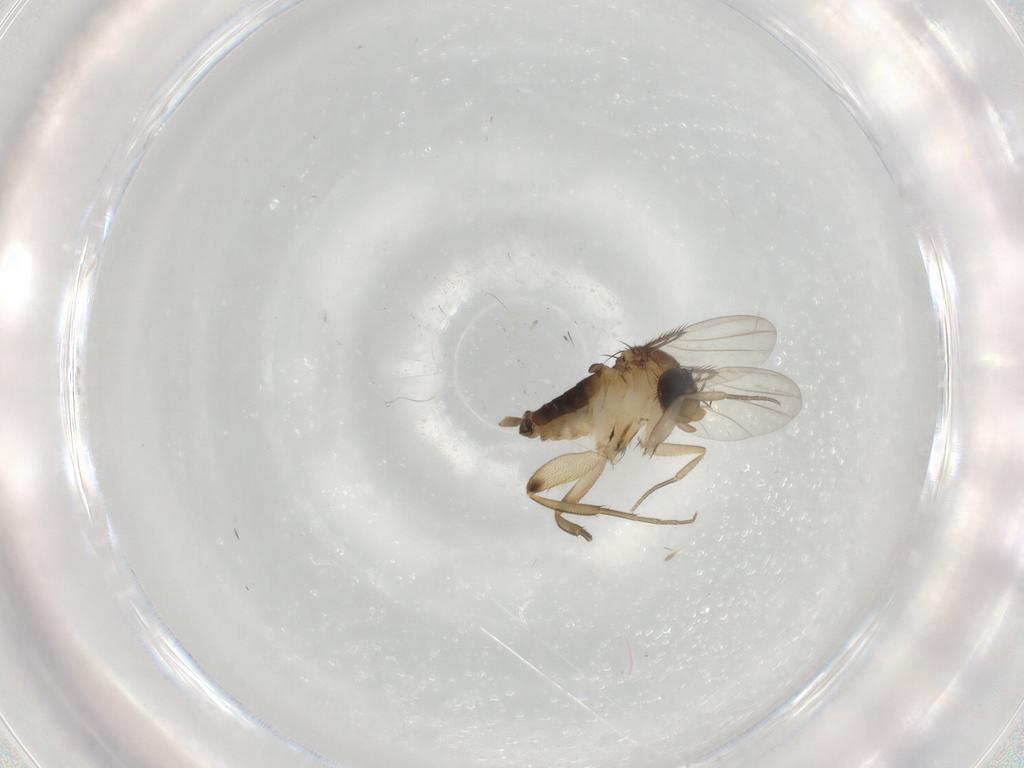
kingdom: Animalia
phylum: Arthropoda
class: Insecta
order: Diptera
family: Phoridae
